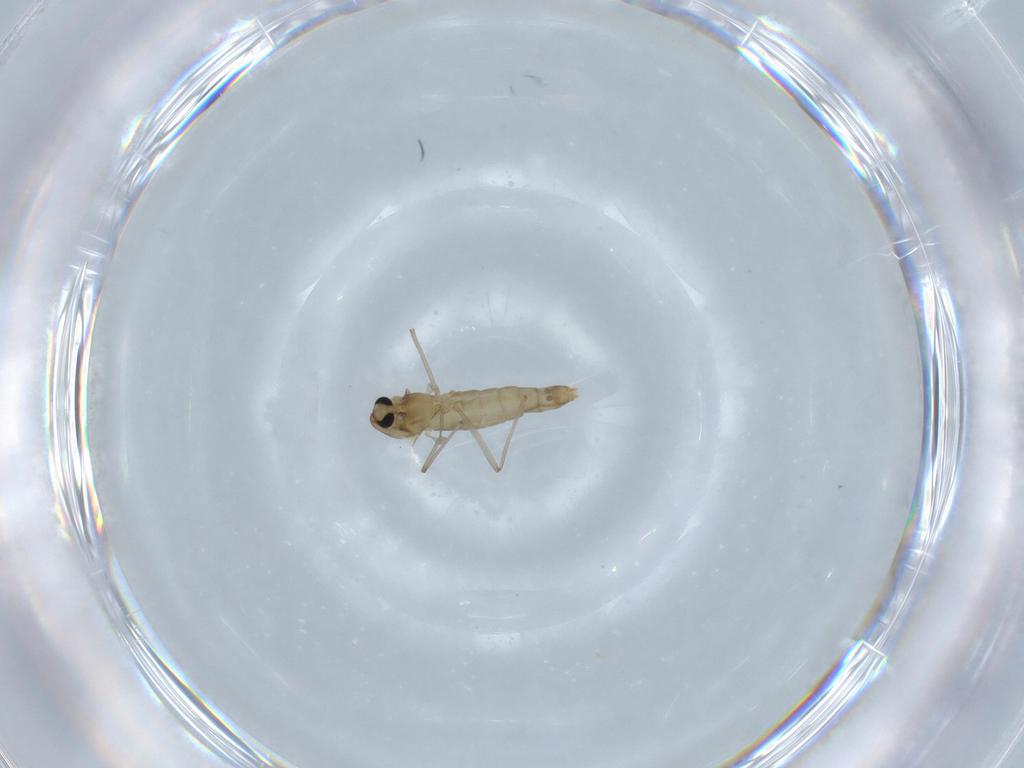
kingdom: Animalia
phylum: Arthropoda
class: Insecta
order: Diptera
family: Chironomidae
